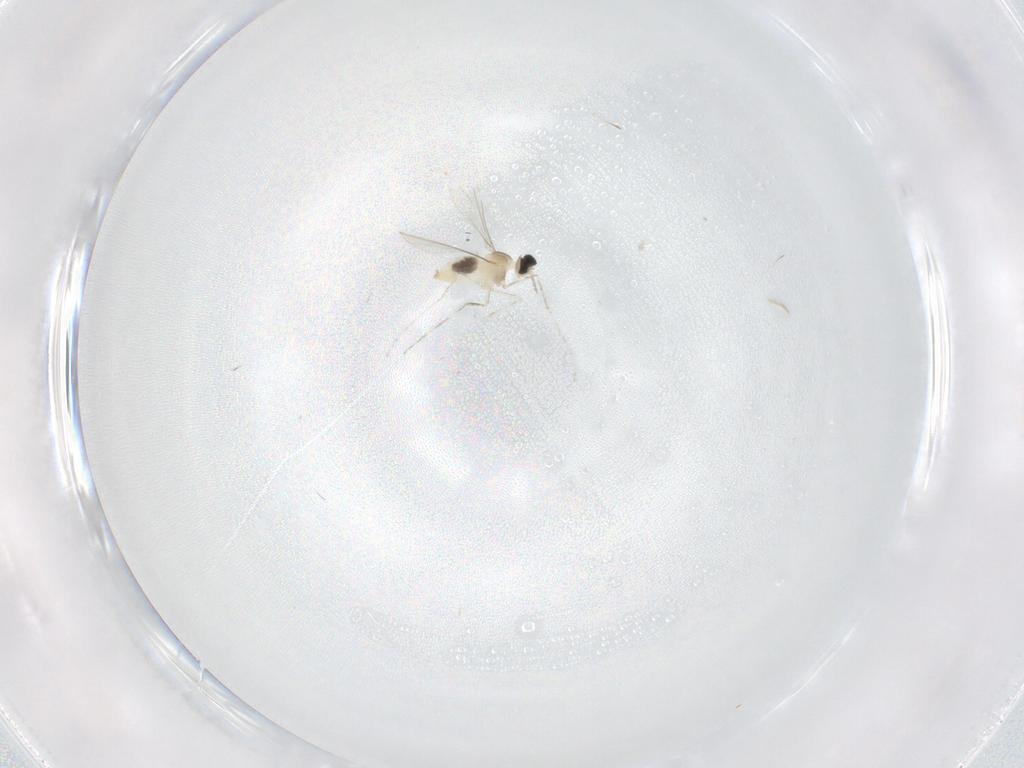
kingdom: Animalia
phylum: Arthropoda
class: Insecta
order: Diptera
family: Cecidomyiidae
